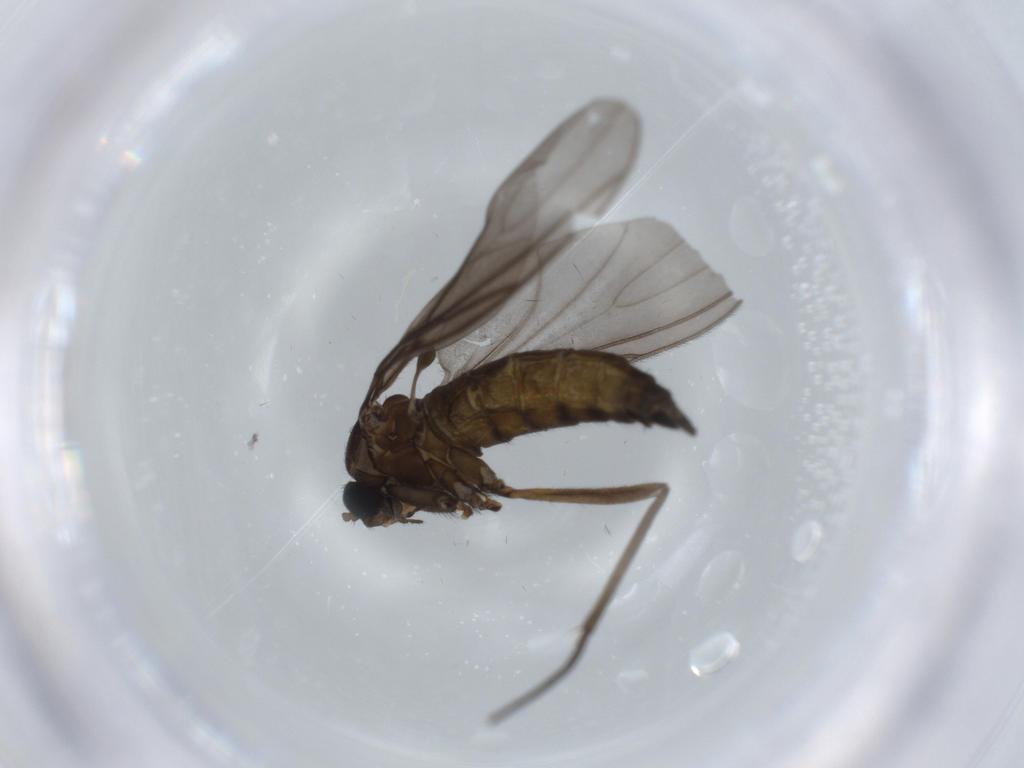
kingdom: Animalia
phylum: Arthropoda
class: Insecta
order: Diptera
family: Sciaridae
